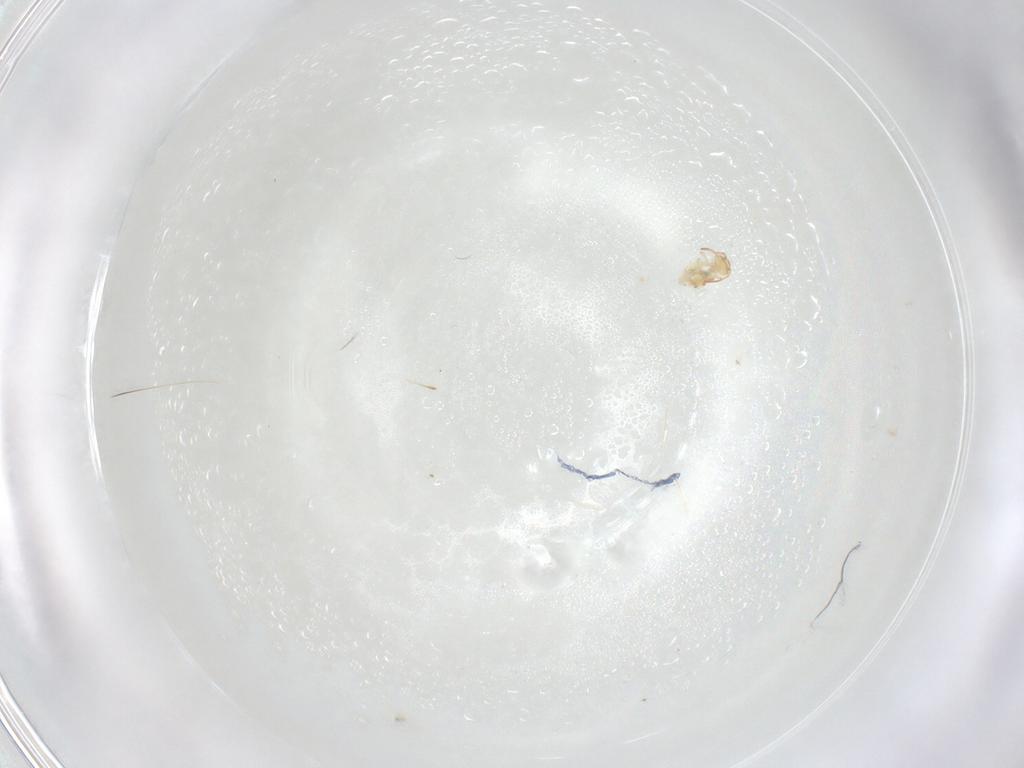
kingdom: Animalia
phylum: Arthropoda
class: Collembola
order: Symphypleona
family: Bourletiellidae
